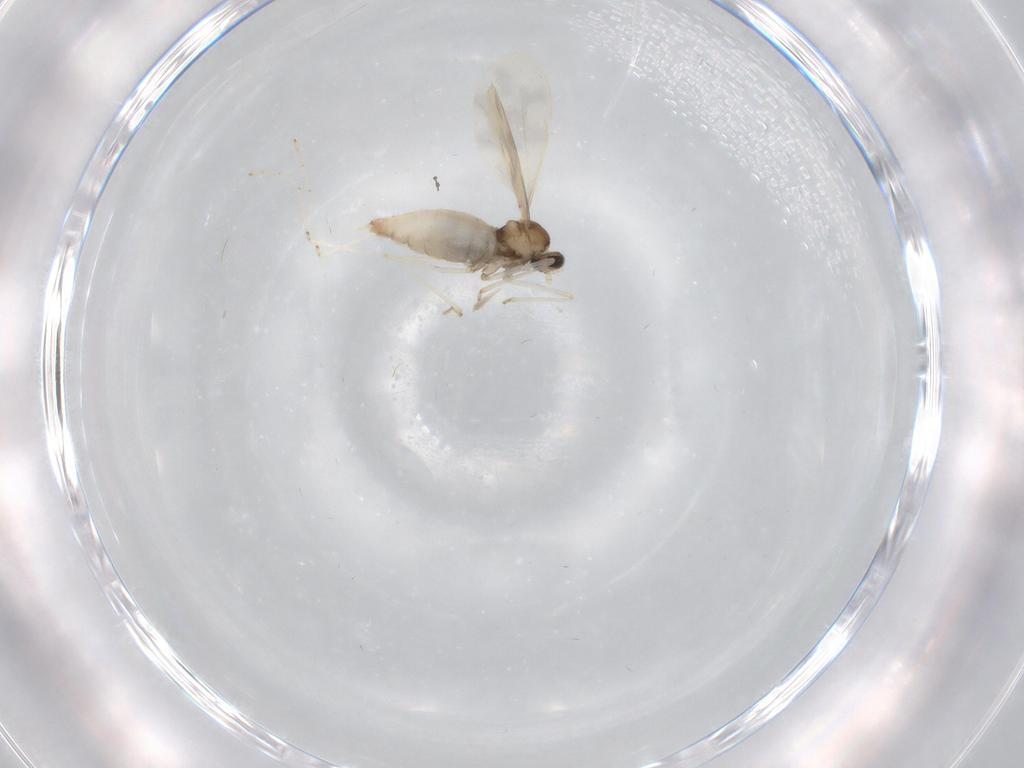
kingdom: Animalia
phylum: Arthropoda
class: Insecta
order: Diptera
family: Cecidomyiidae
